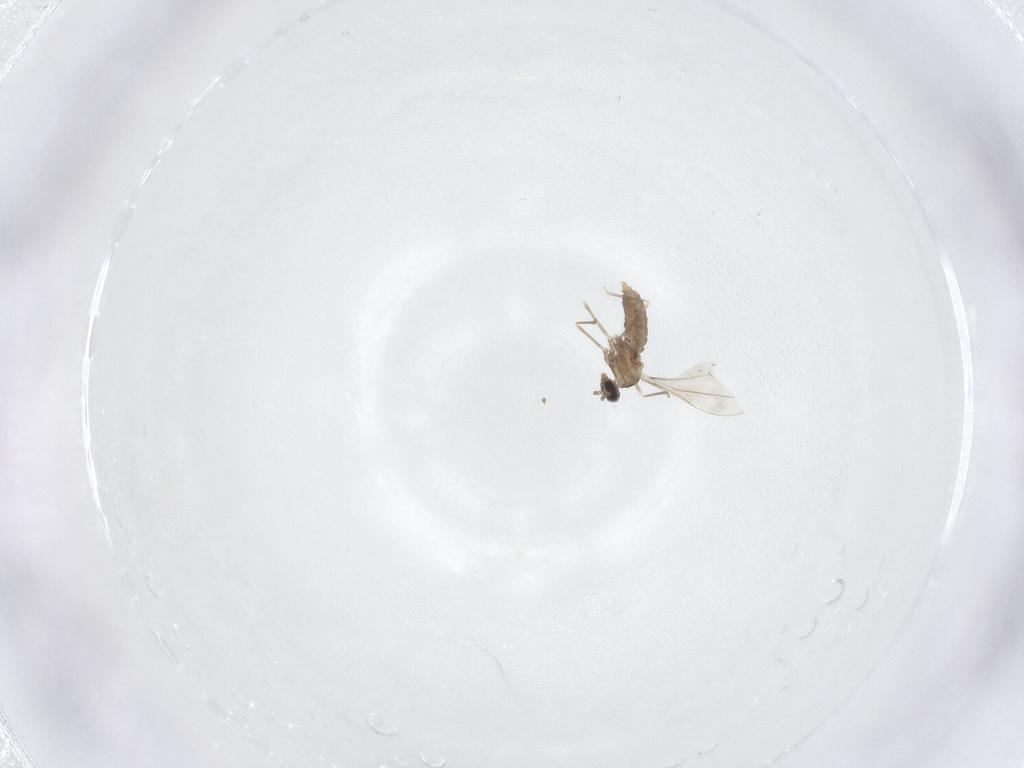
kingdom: Animalia
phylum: Arthropoda
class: Insecta
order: Diptera
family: Cecidomyiidae
